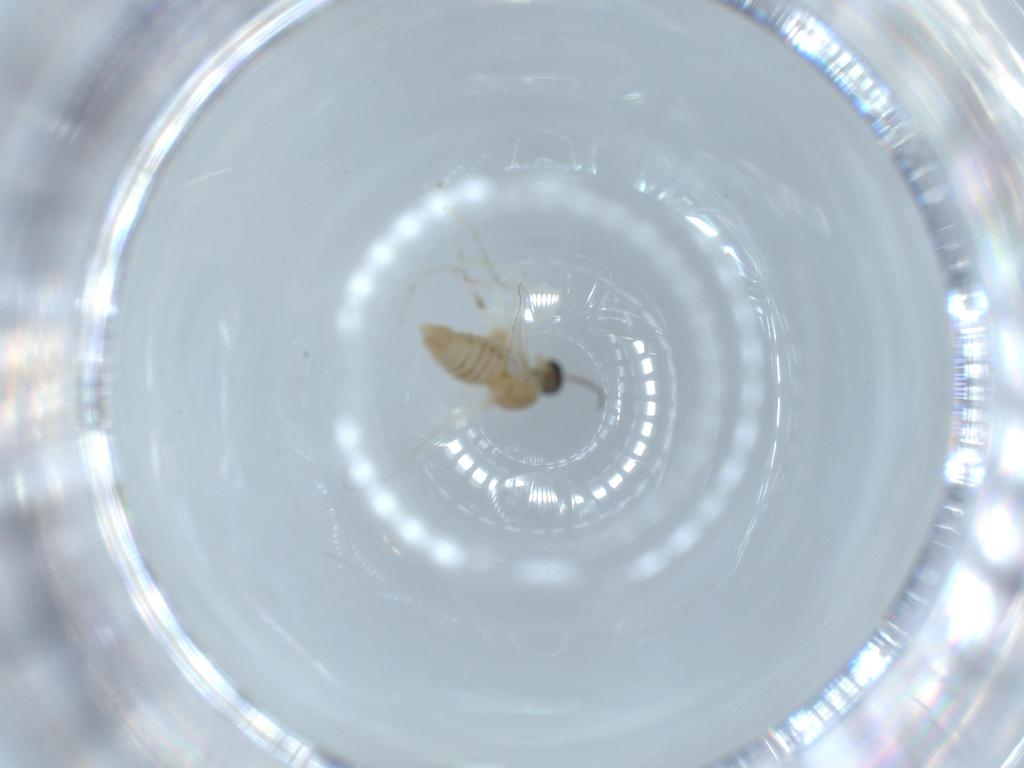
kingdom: Animalia
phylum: Arthropoda
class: Insecta
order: Diptera
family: Sciaridae
